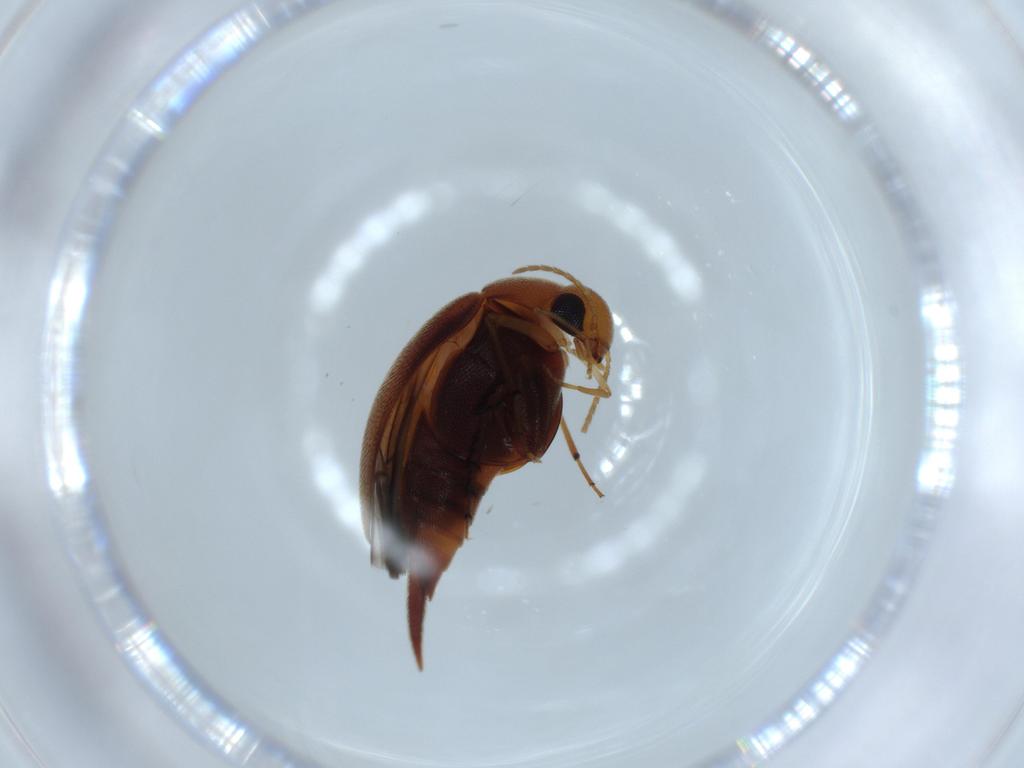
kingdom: Animalia
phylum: Arthropoda
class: Insecta
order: Coleoptera
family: Mordellidae
